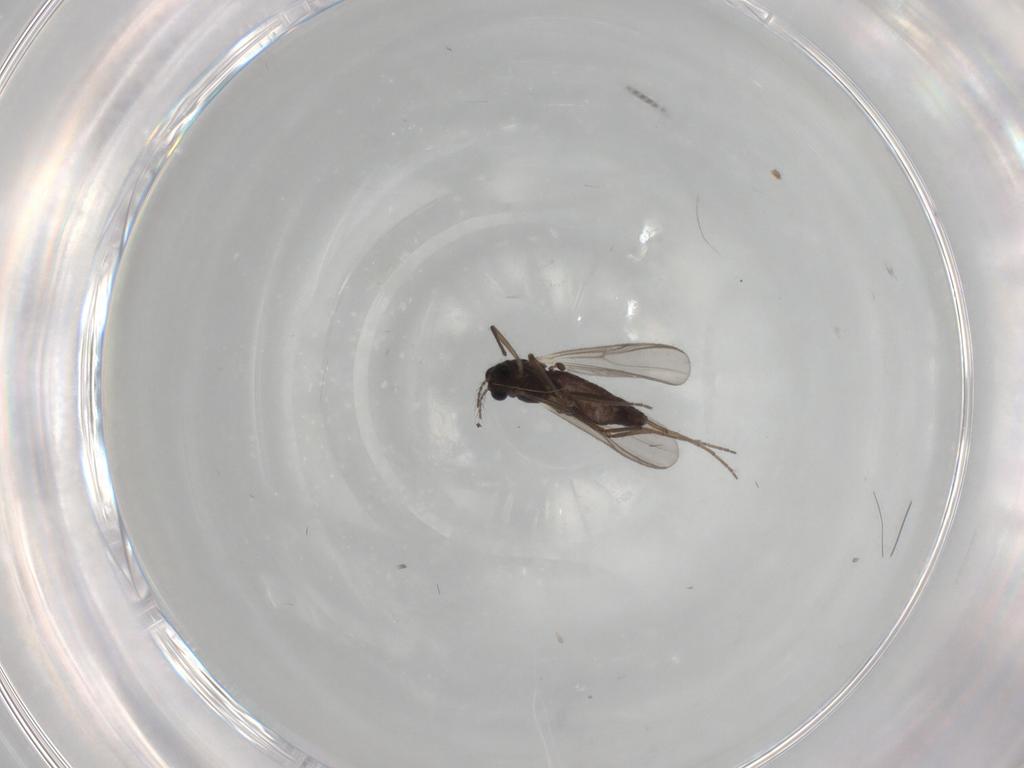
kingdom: Animalia
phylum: Arthropoda
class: Insecta
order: Diptera
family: Chironomidae
